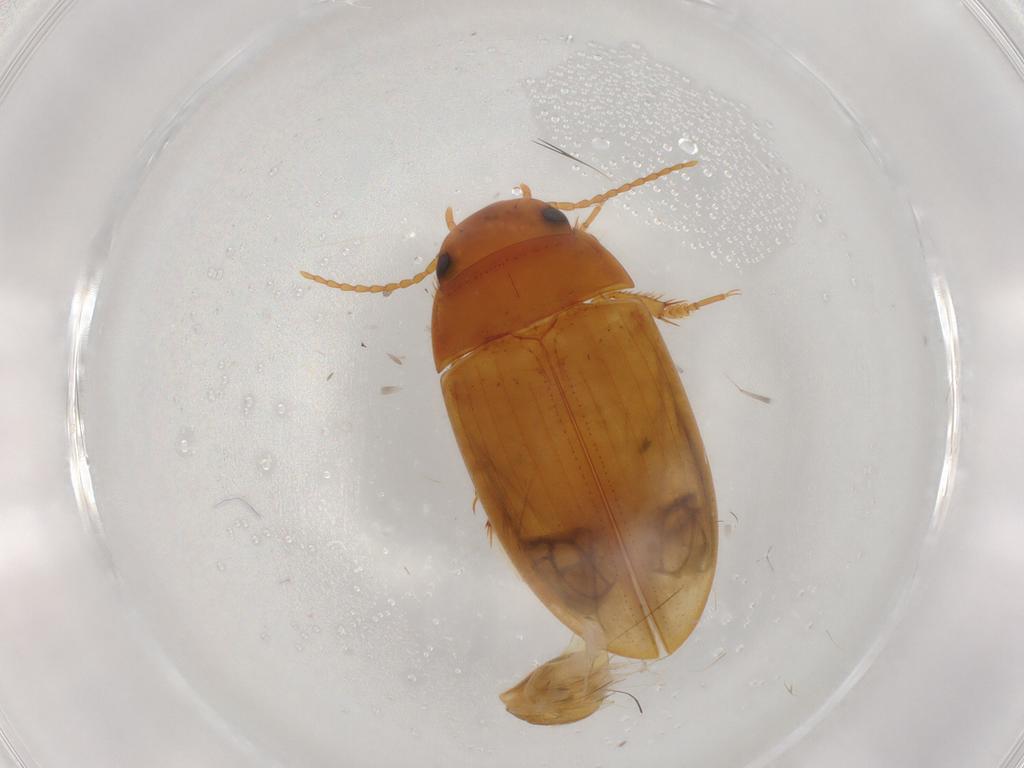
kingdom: Animalia
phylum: Arthropoda
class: Insecta
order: Coleoptera
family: Dytiscidae
